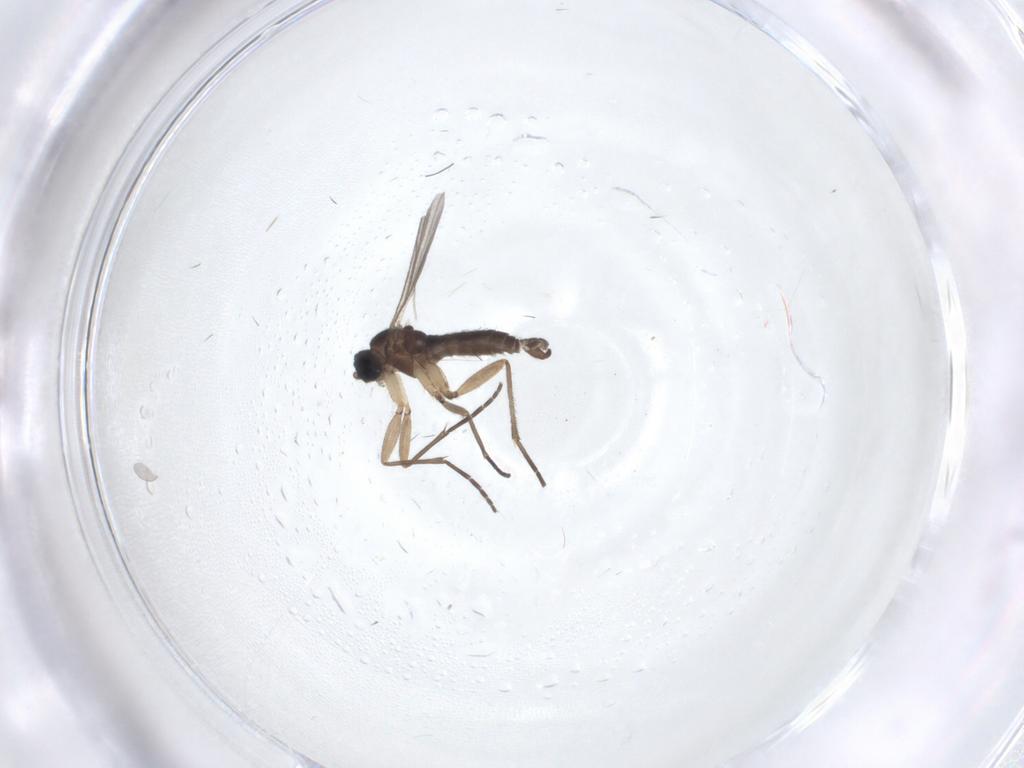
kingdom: Animalia
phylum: Arthropoda
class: Insecta
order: Diptera
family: Sciaridae
